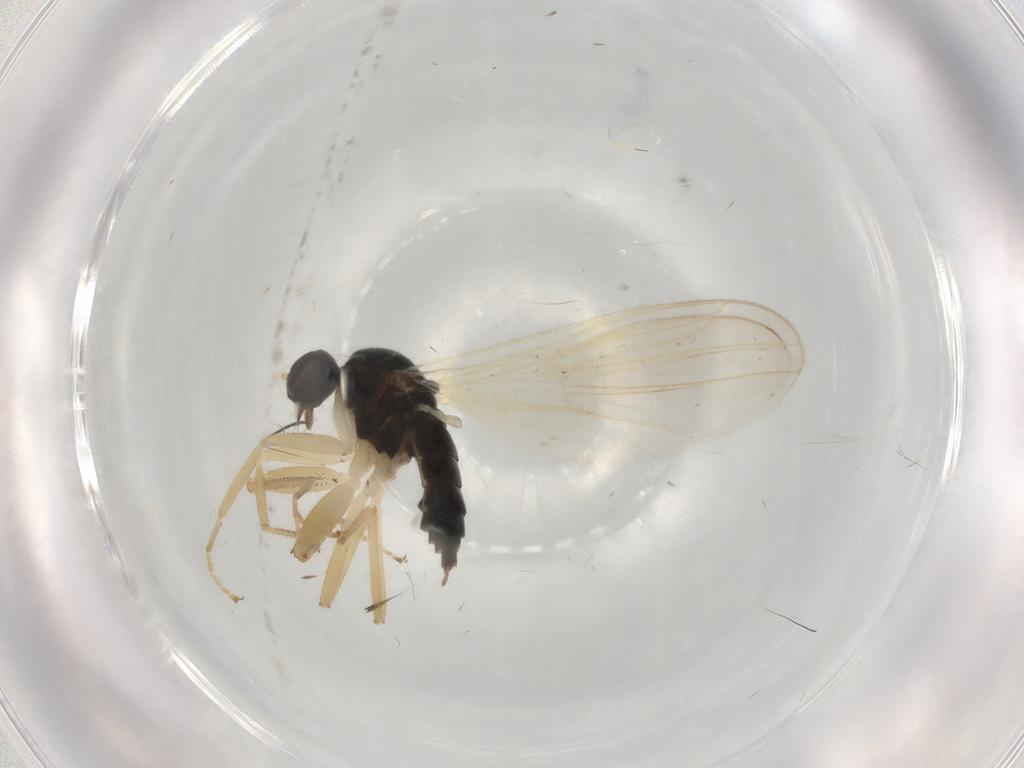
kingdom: Animalia
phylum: Arthropoda
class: Insecta
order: Diptera
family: Hybotidae
